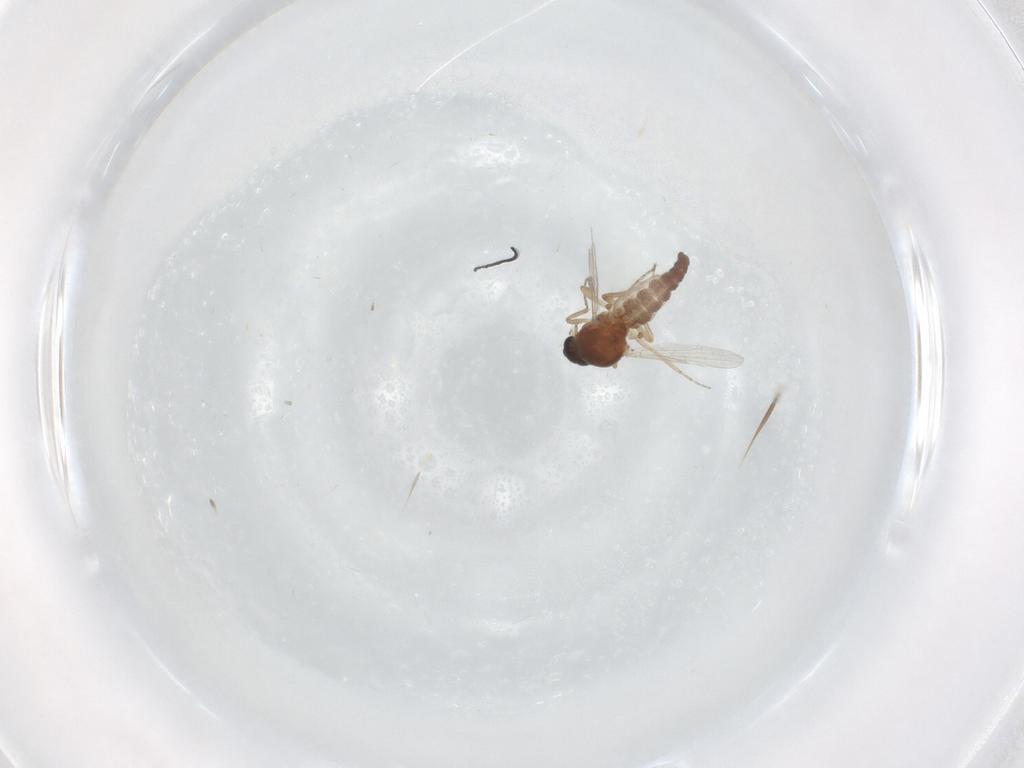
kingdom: Animalia
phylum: Arthropoda
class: Insecta
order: Diptera
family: Ceratopogonidae
